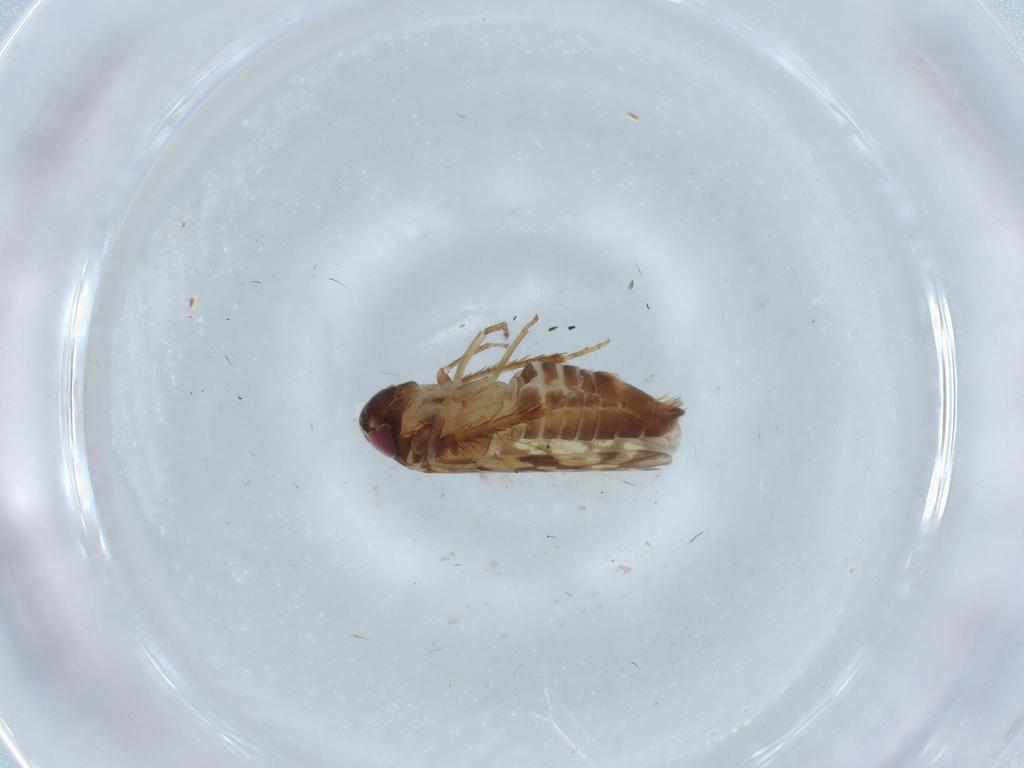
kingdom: Animalia
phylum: Arthropoda
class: Insecta
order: Hemiptera
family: Cicadellidae
